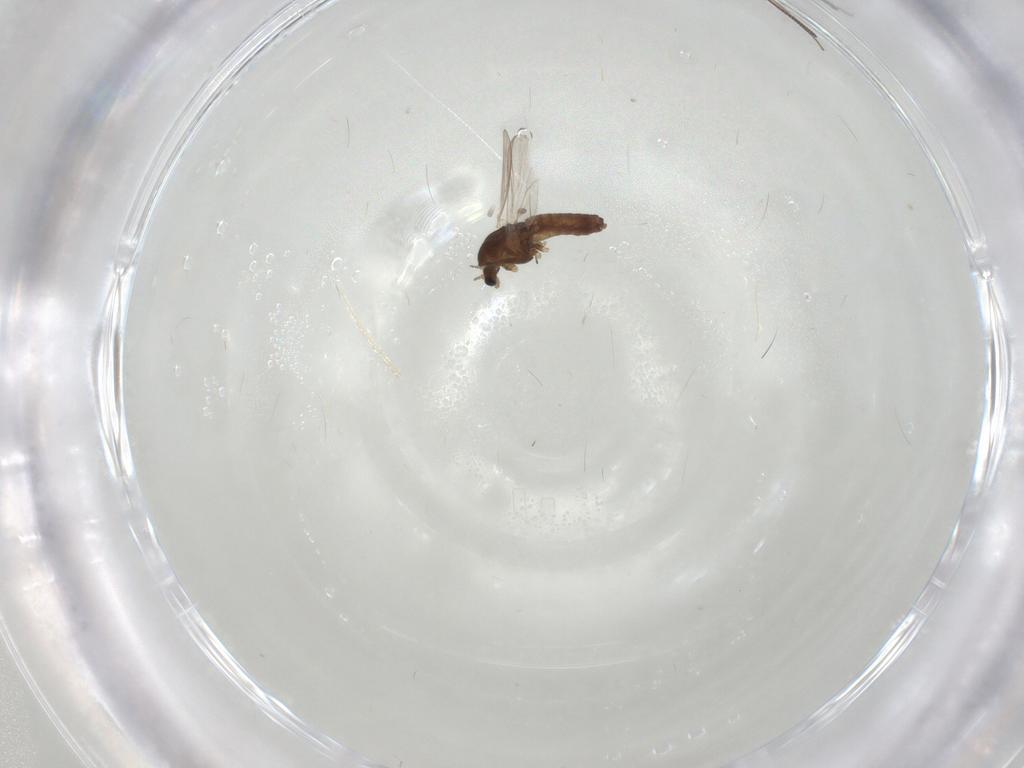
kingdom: Animalia
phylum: Arthropoda
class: Insecta
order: Diptera
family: Chironomidae
